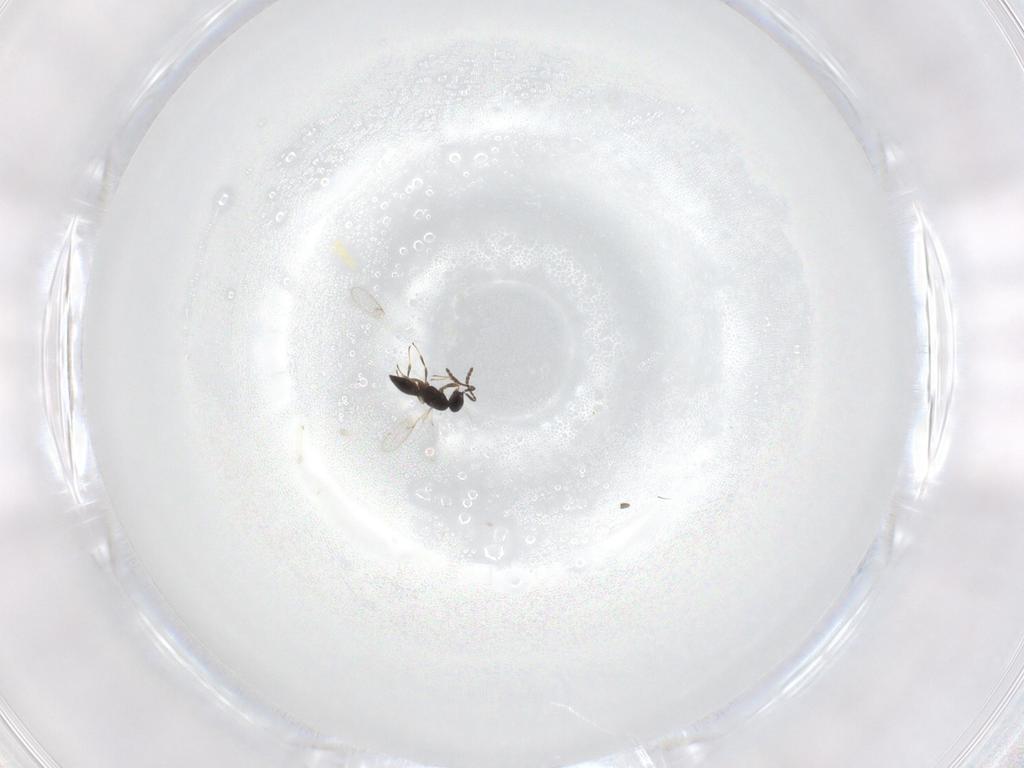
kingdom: Animalia
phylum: Arthropoda
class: Insecta
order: Hymenoptera
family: Scelionidae
